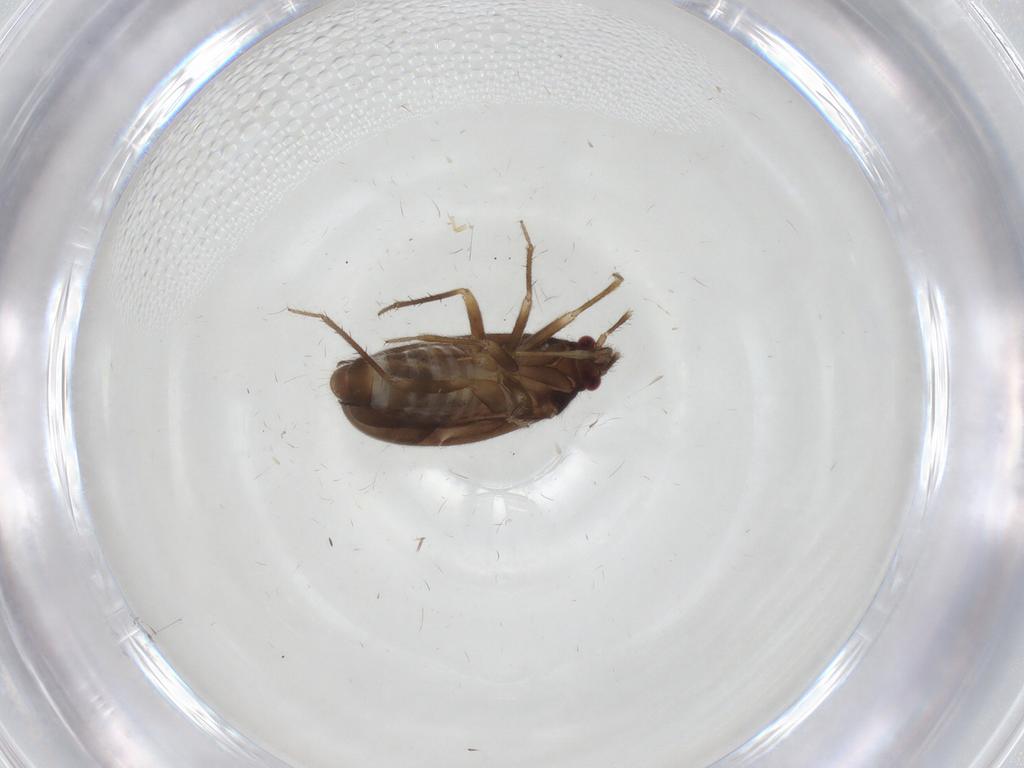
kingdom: Animalia
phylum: Arthropoda
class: Insecta
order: Hemiptera
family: Ceratocombidae
